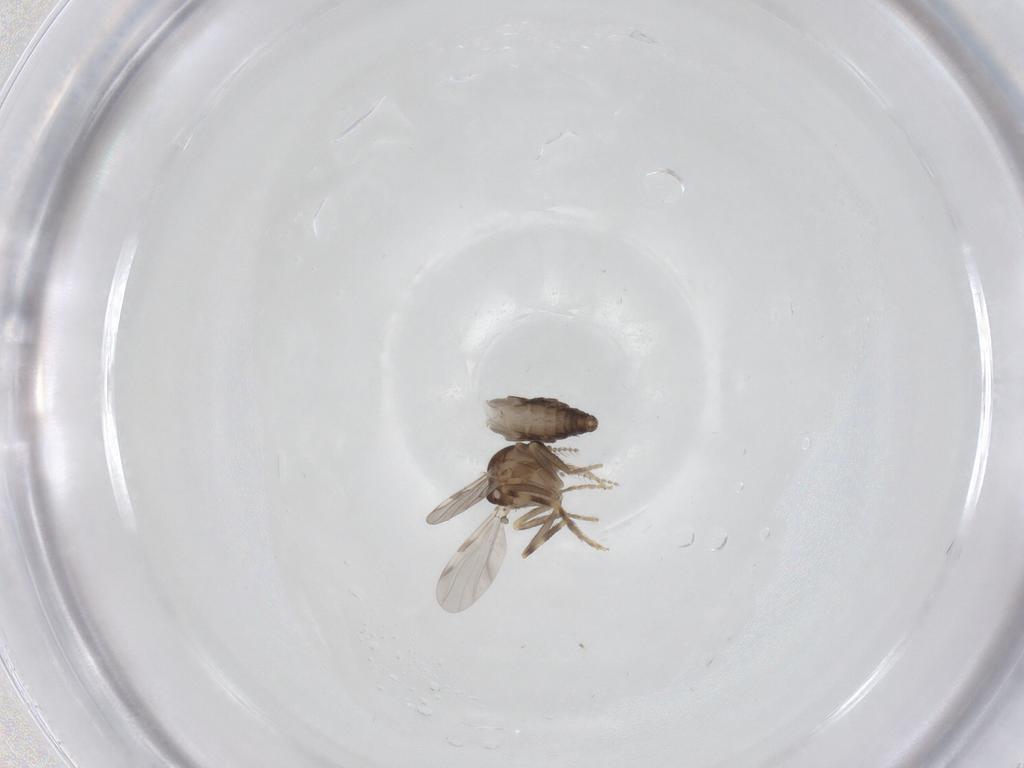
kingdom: Animalia
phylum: Arthropoda
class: Insecta
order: Diptera
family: Ceratopogonidae
